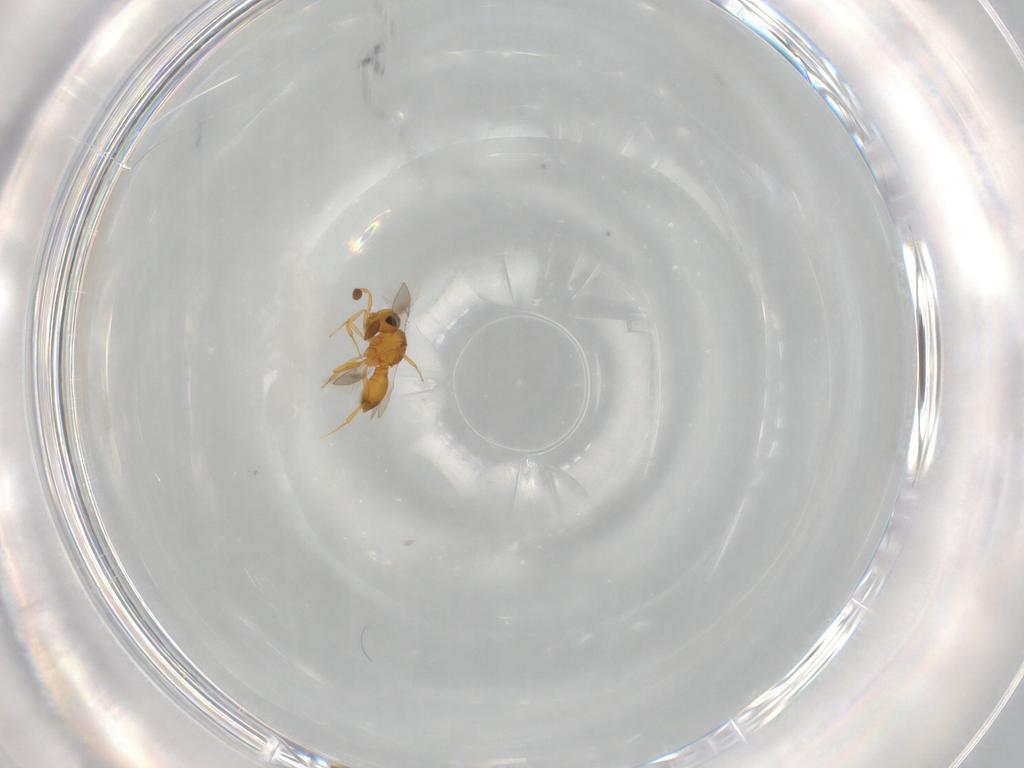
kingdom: Animalia
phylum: Arthropoda
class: Insecta
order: Hymenoptera
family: Scelionidae
